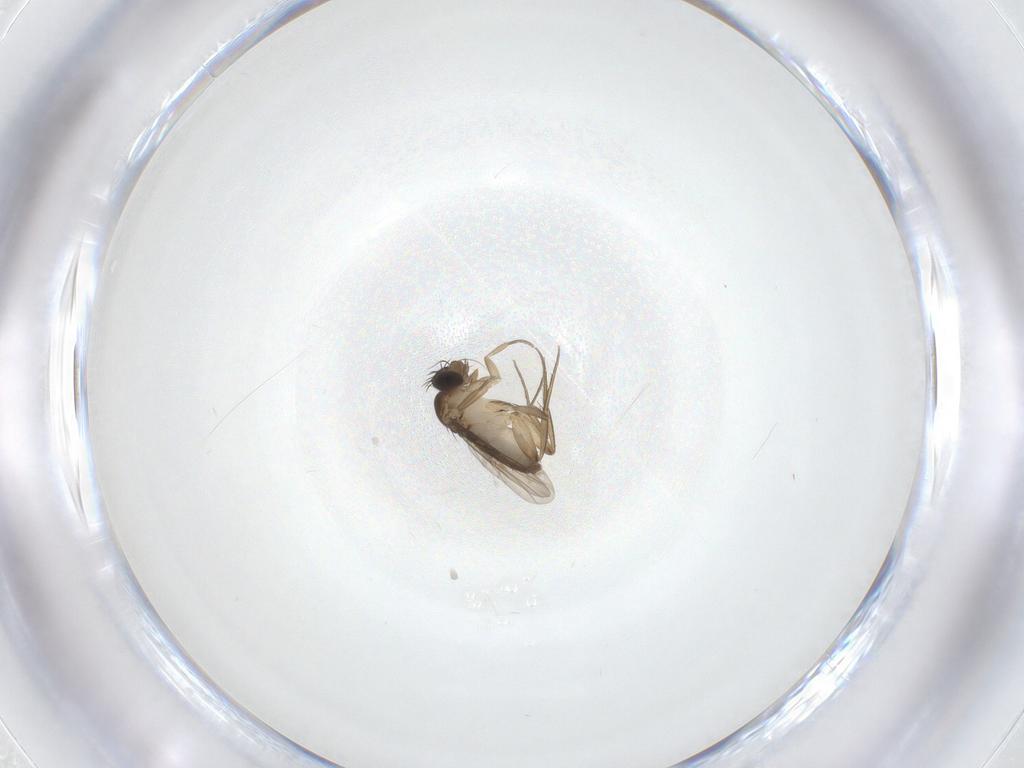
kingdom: Animalia
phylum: Arthropoda
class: Insecta
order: Diptera
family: Phoridae
